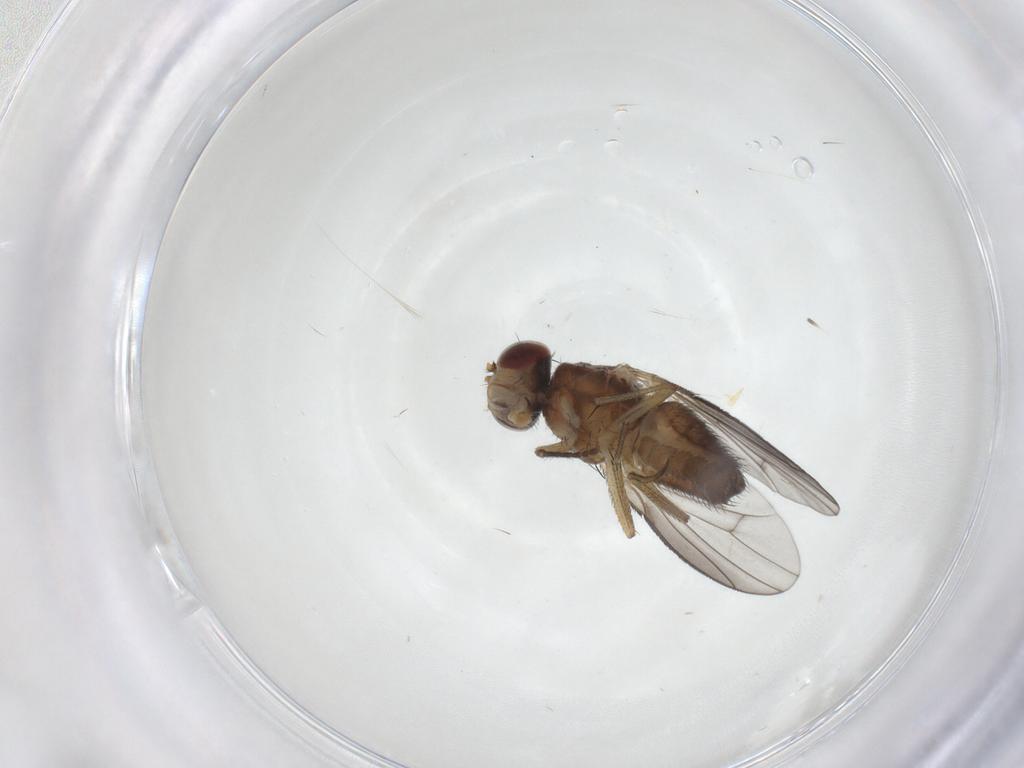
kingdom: Animalia
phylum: Arthropoda
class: Insecta
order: Diptera
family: Heleomyzidae
